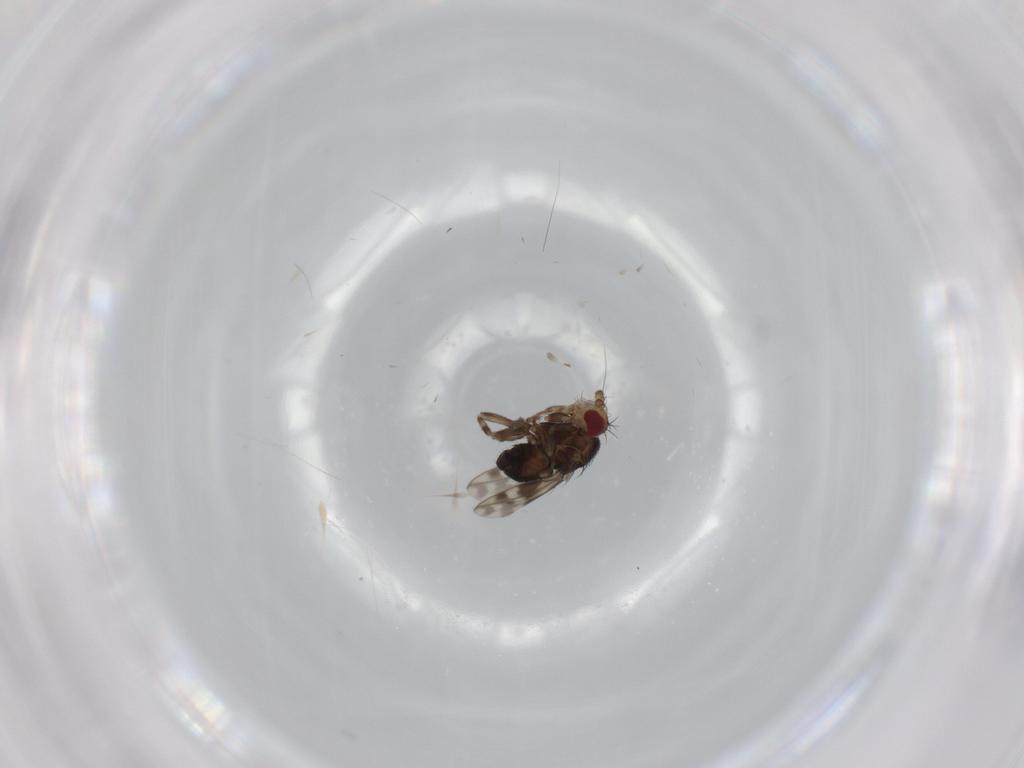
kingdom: Animalia
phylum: Arthropoda
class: Insecta
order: Diptera
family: Sphaeroceridae
